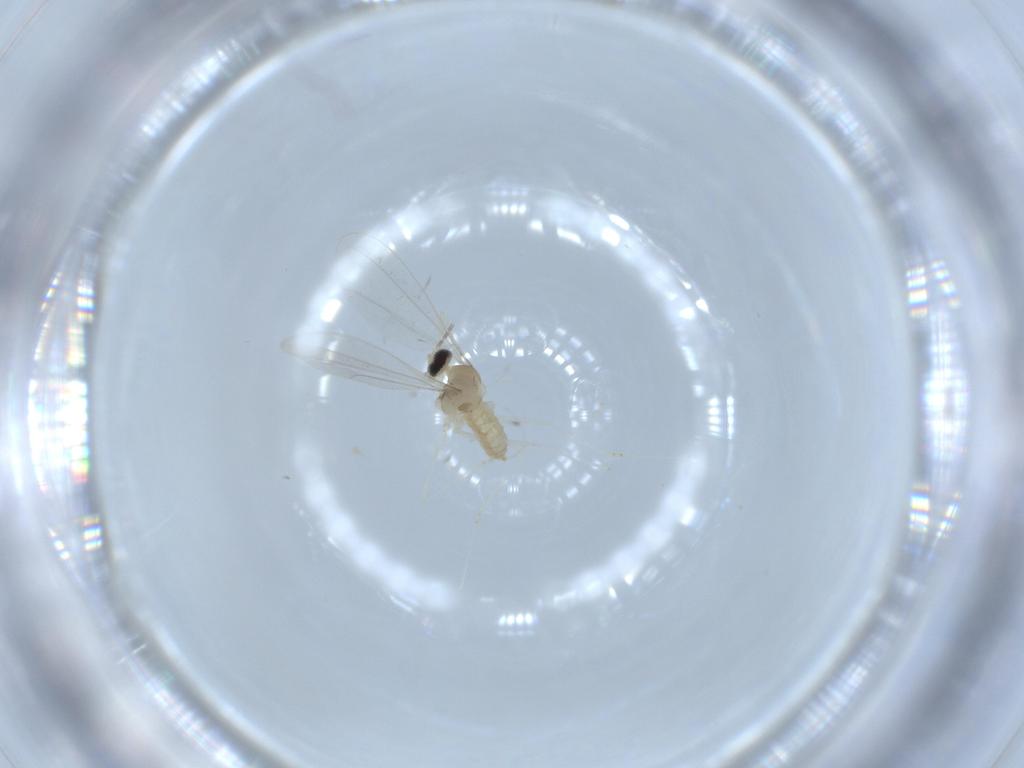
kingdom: Animalia
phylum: Arthropoda
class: Insecta
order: Diptera
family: Cecidomyiidae
